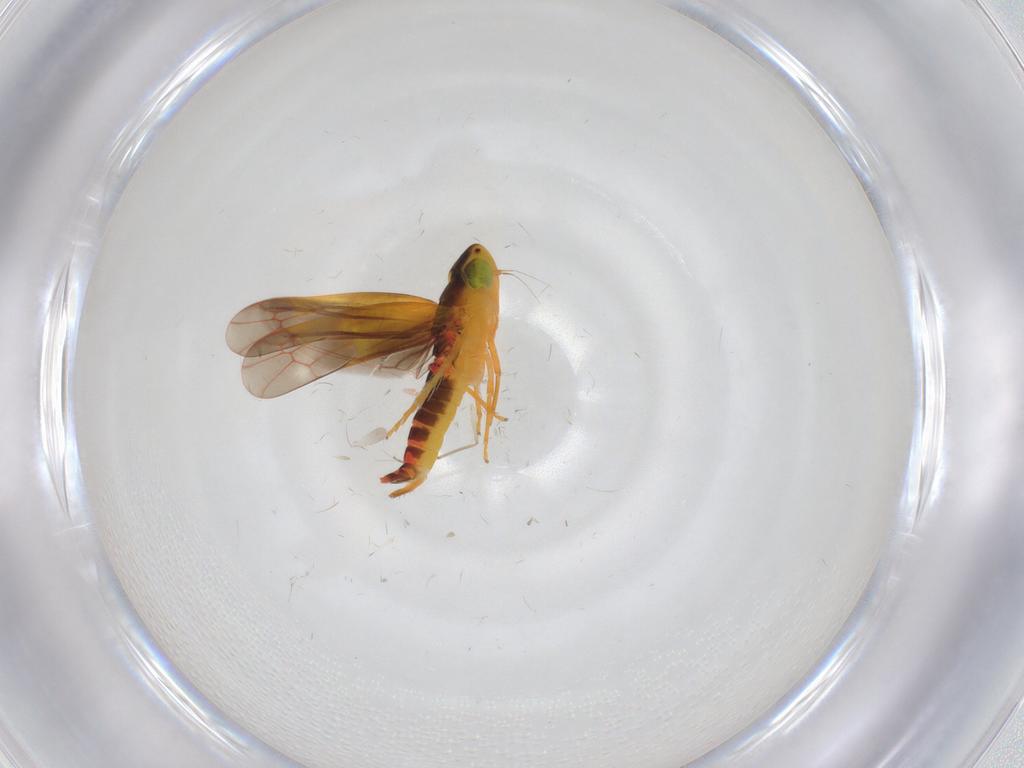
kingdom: Animalia
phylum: Arthropoda
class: Insecta
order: Hemiptera
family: Cicadellidae
